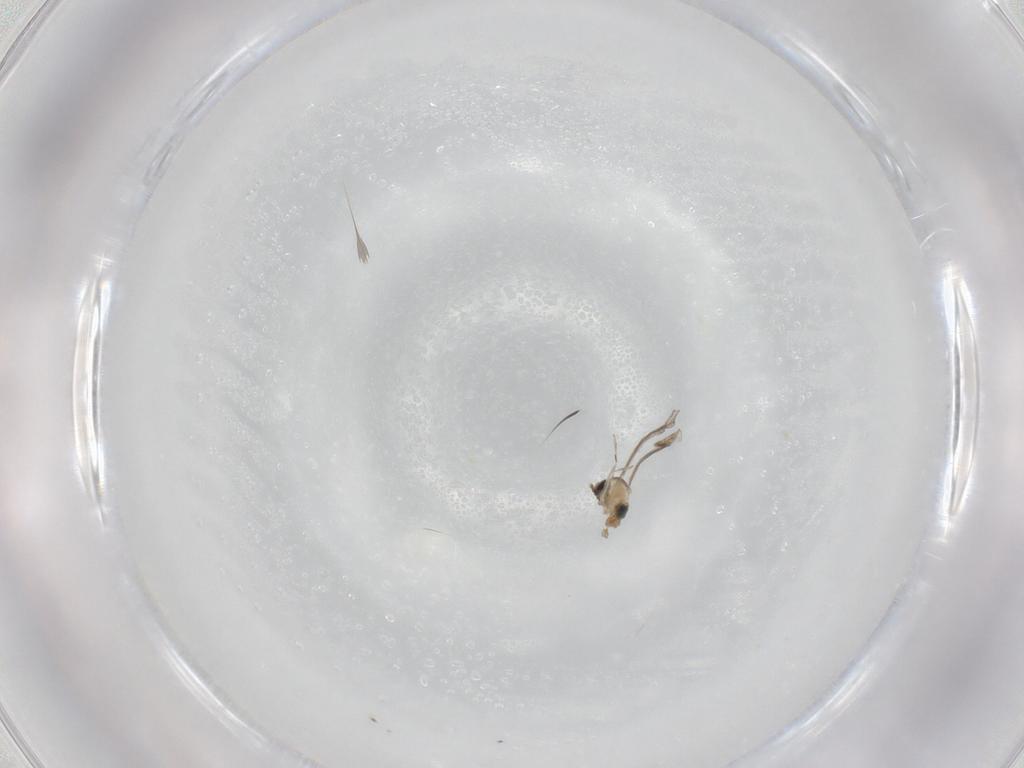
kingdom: Animalia
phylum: Arthropoda
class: Insecta
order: Diptera
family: Cecidomyiidae
